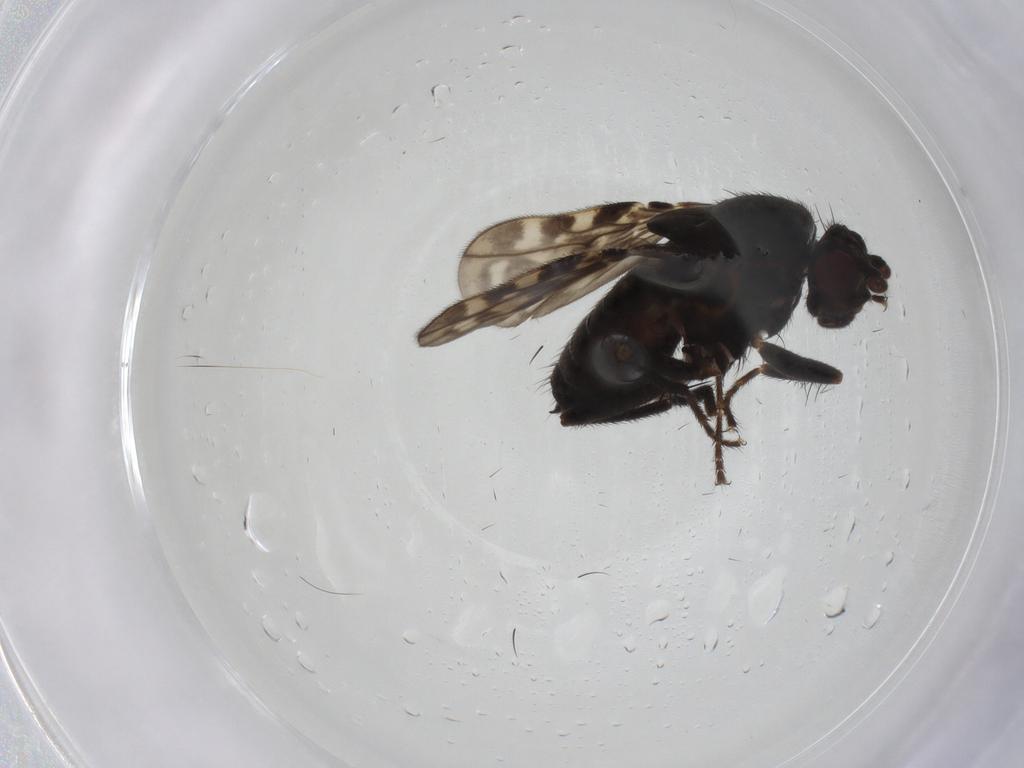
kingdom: Animalia
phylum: Arthropoda
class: Insecta
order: Diptera
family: Sphaeroceridae
